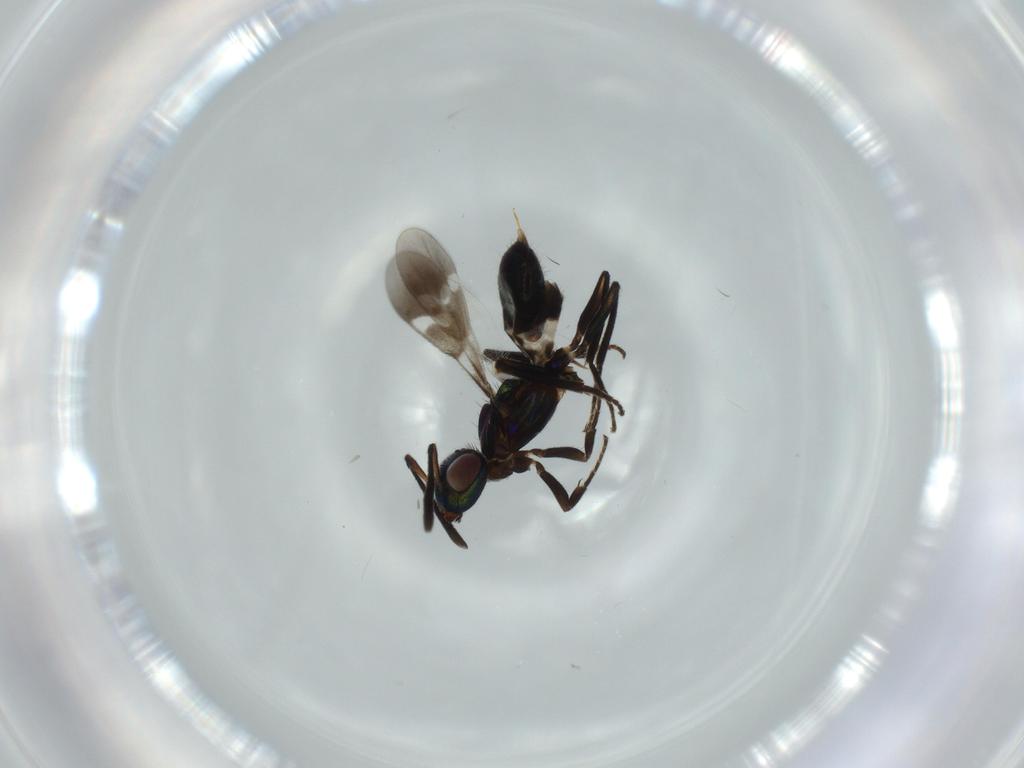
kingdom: Animalia
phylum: Arthropoda
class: Insecta
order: Hymenoptera
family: Eupelmidae
